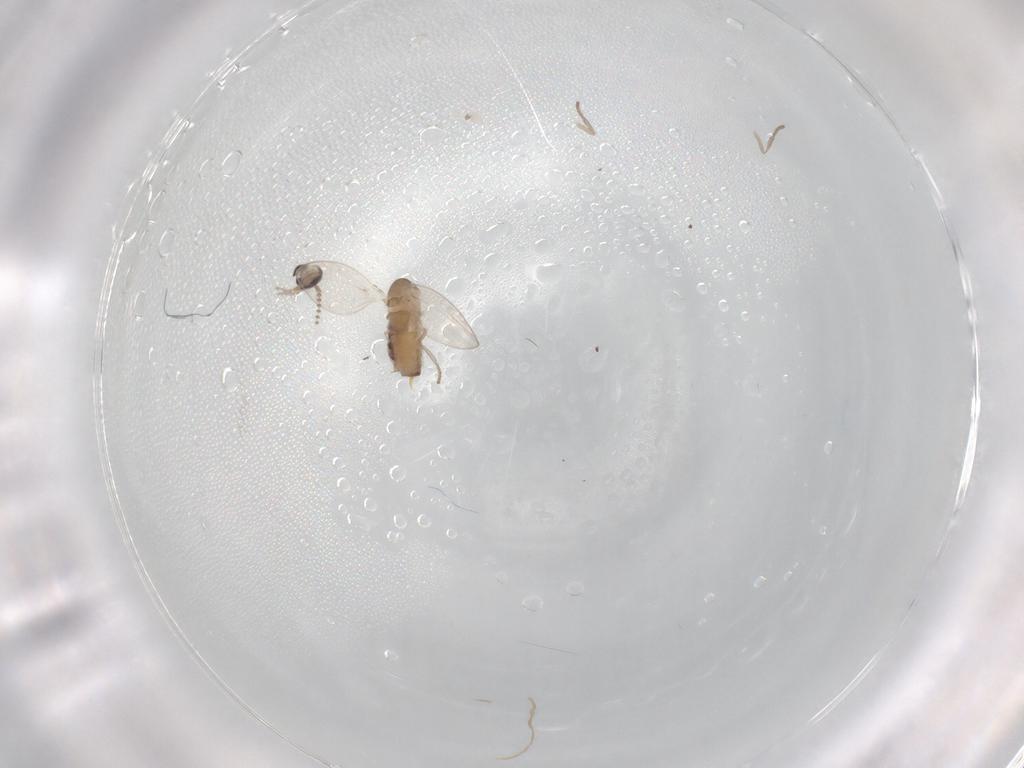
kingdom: Animalia
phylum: Arthropoda
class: Insecta
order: Diptera
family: Psychodidae
